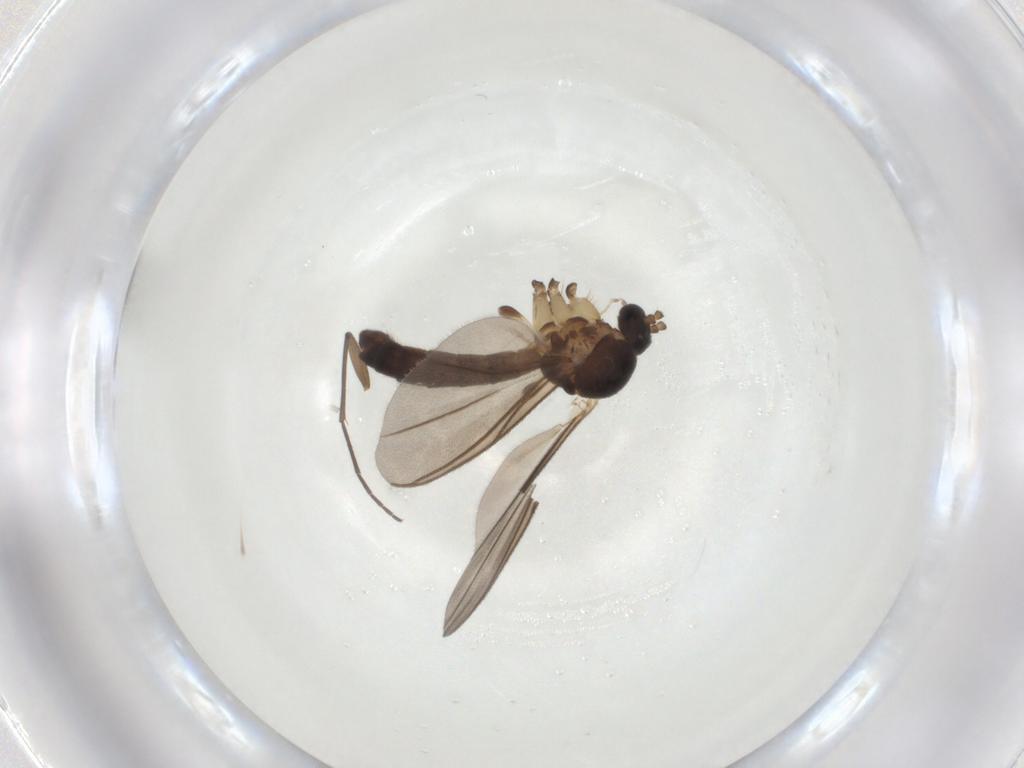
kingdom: Animalia
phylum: Arthropoda
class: Insecta
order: Diptera
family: Mycetophilidae
